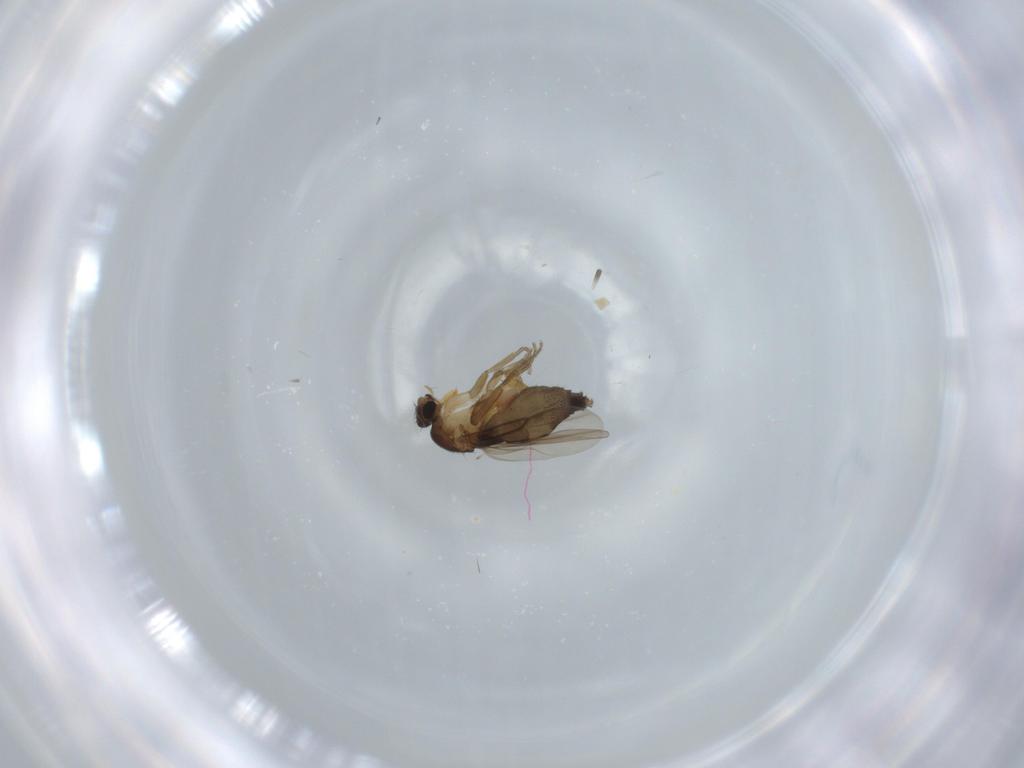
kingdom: Animalia
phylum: Arthropoda
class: Insecta
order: Diptera
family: Phoridae
